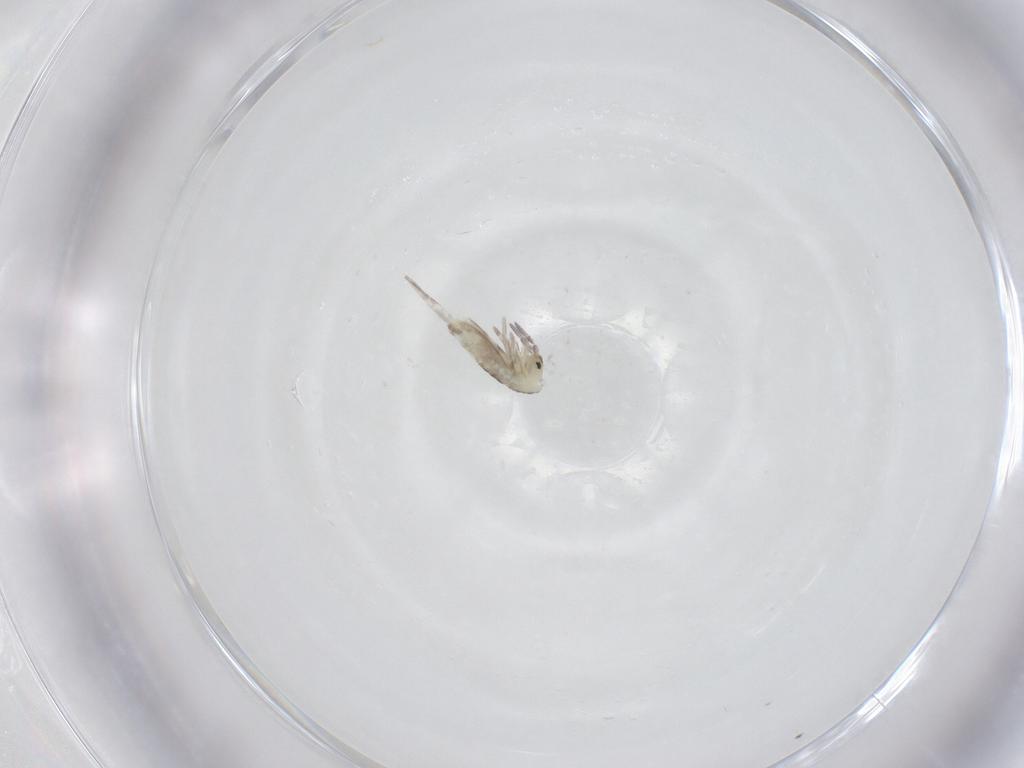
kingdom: Animalia
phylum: Arthropoda
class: Collembola
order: Entomobryomorpha
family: Entomobryidae
